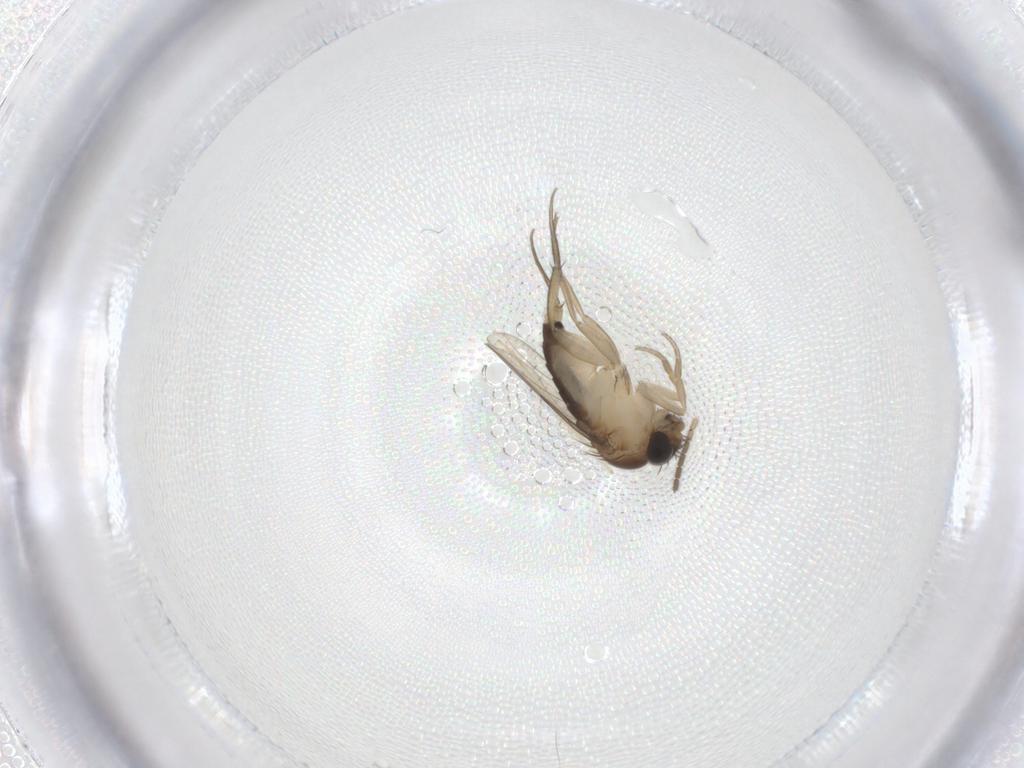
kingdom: Animalia
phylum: Arthropoda
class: Insecta
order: Diptera
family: Phoridae
